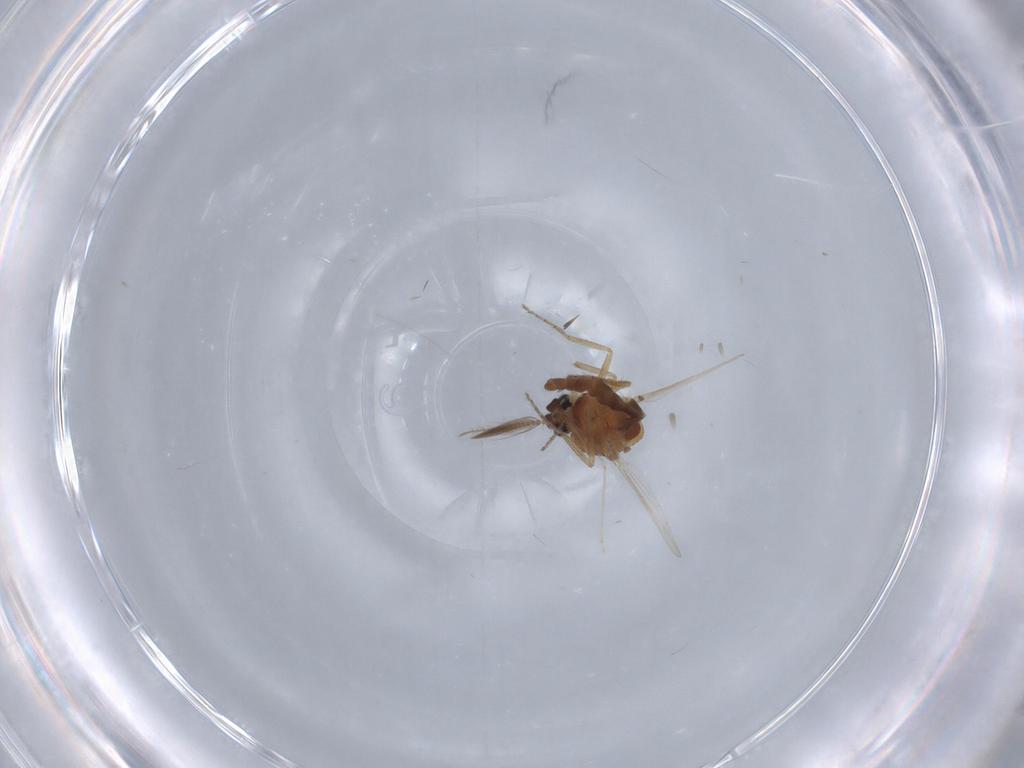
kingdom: Animalia
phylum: Arthropoda
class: Insecta
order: Diptera
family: Ceratopogonidae
